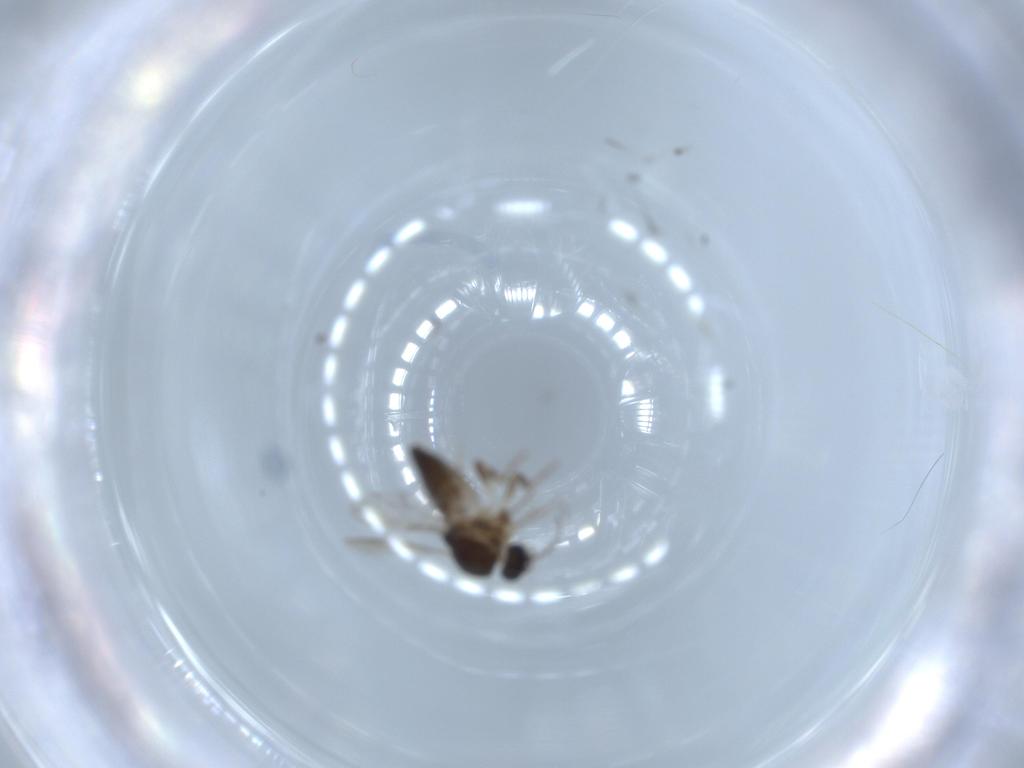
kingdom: Animalia
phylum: Arthropoda
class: Insecta
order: Diptera
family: Ceratopogonidae
